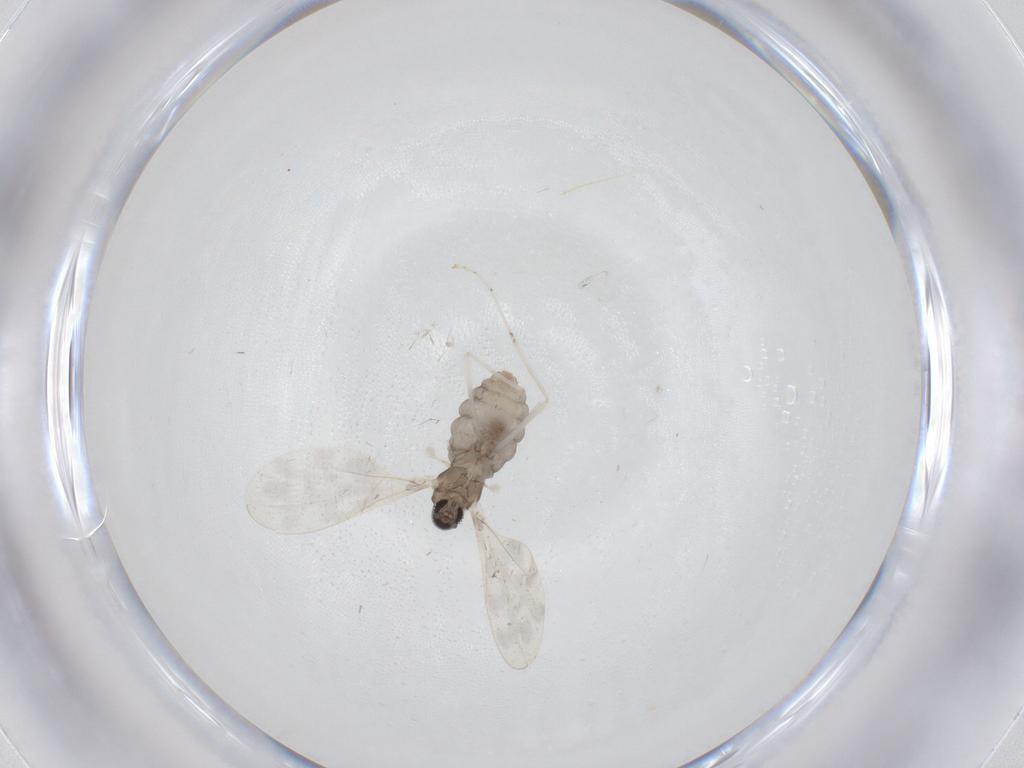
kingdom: Animalia
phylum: Arthropoda
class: Insecta
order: Diptera
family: Cecidomyiidae
